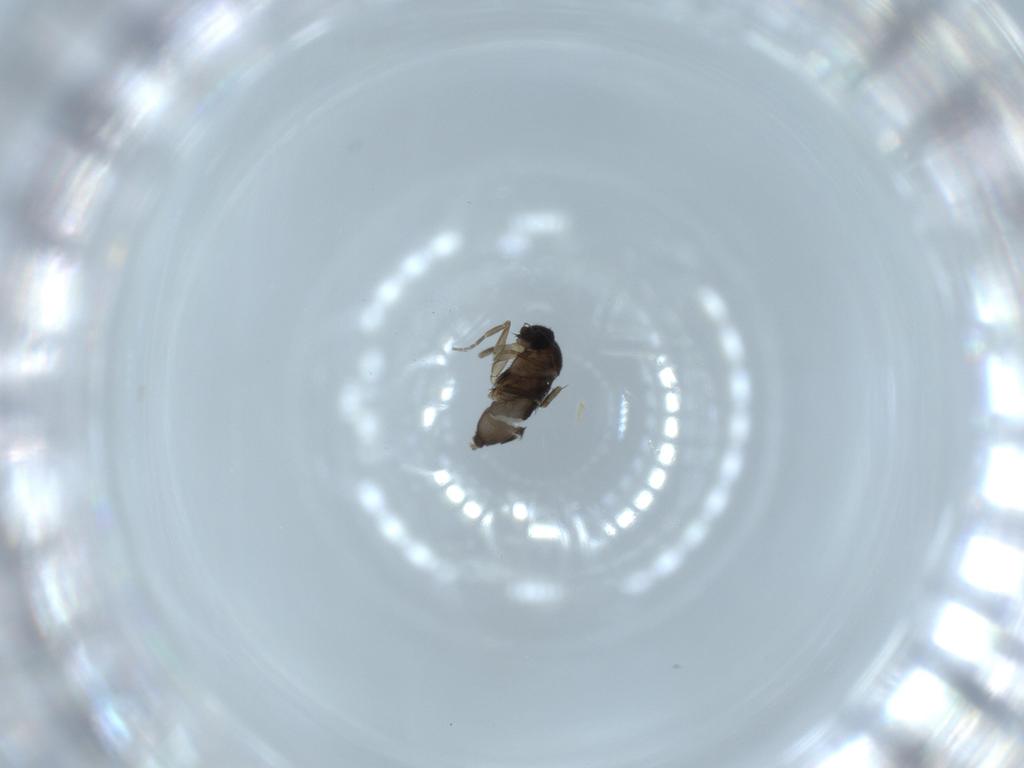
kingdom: Animalia
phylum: Arthropoda
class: Insecta
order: Diptera
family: Phoridae
